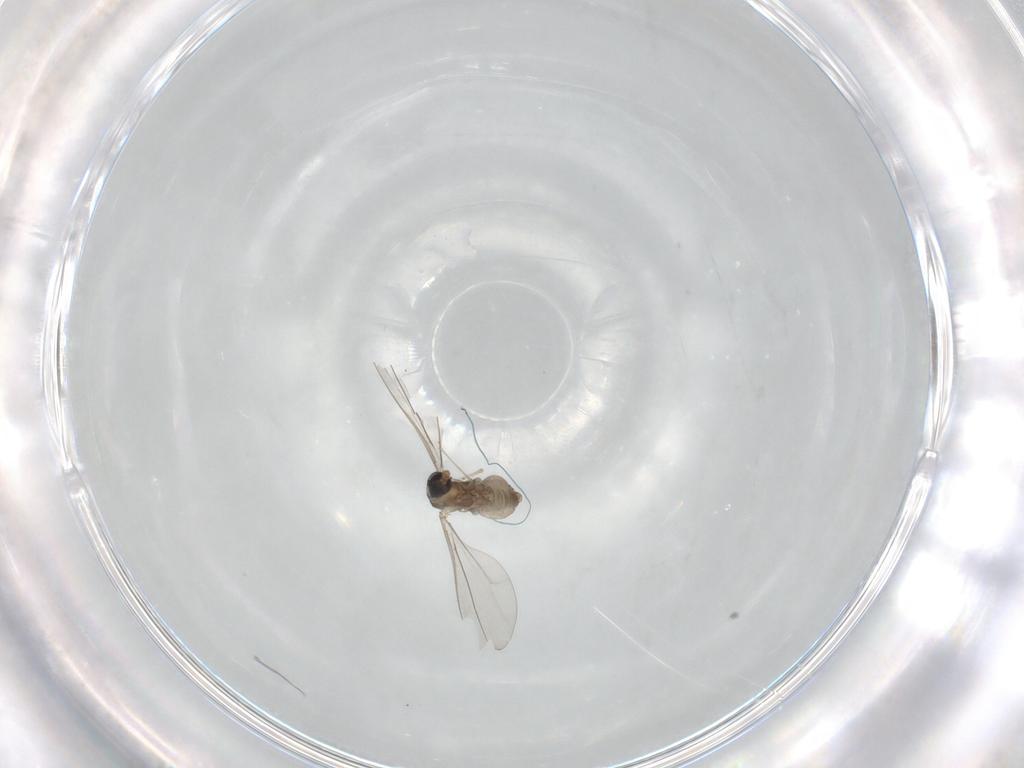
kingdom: Animalia
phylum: Arthropoda
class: Insecta
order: Diptera
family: Cecidomyiidae
